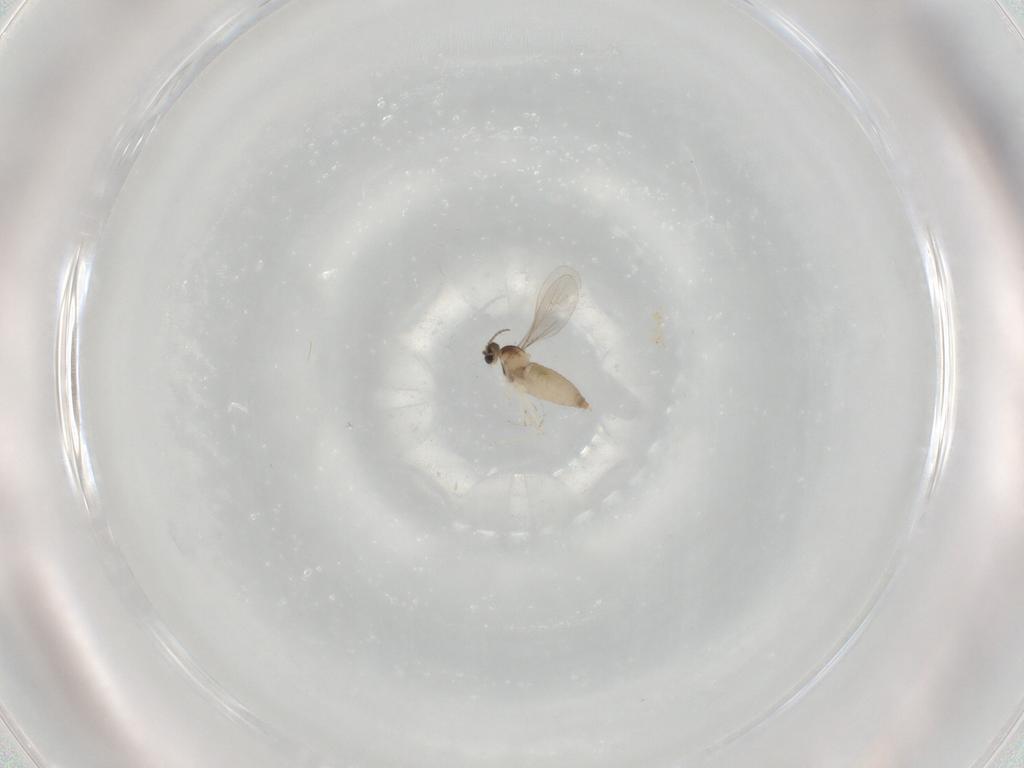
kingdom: Animalia
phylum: Arthropoda
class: Insecta
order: Diptera
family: Ceratopogonidae
